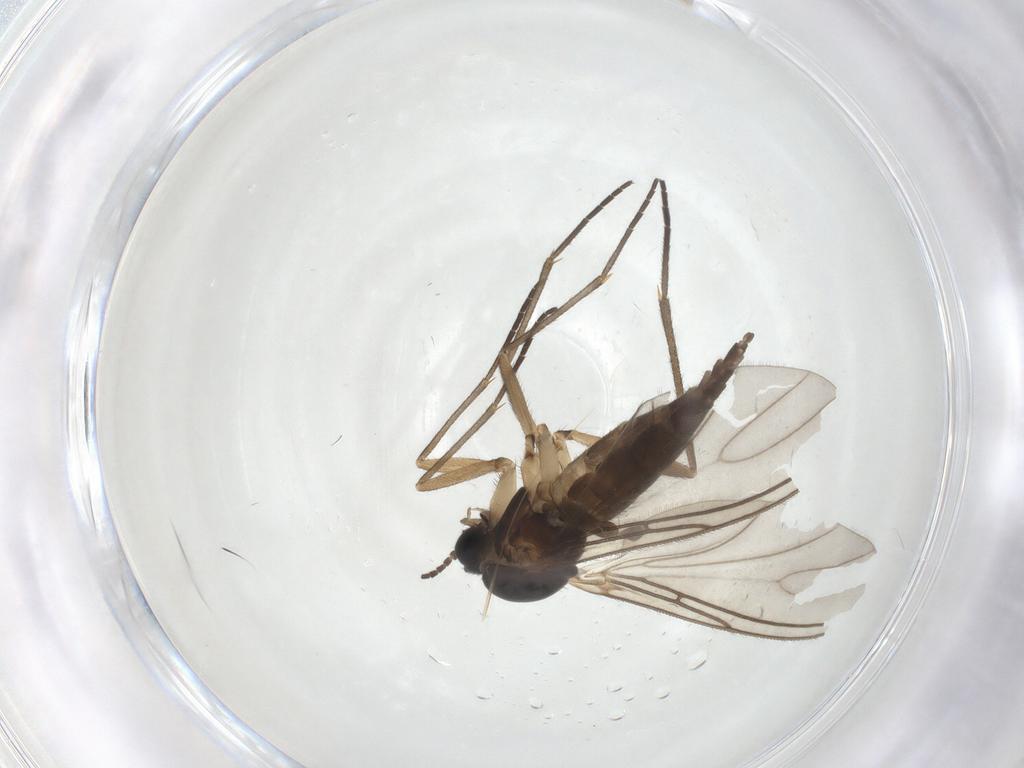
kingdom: Animalia
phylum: Arthropoda
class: Insecta
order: Diptera
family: Sciaridae
